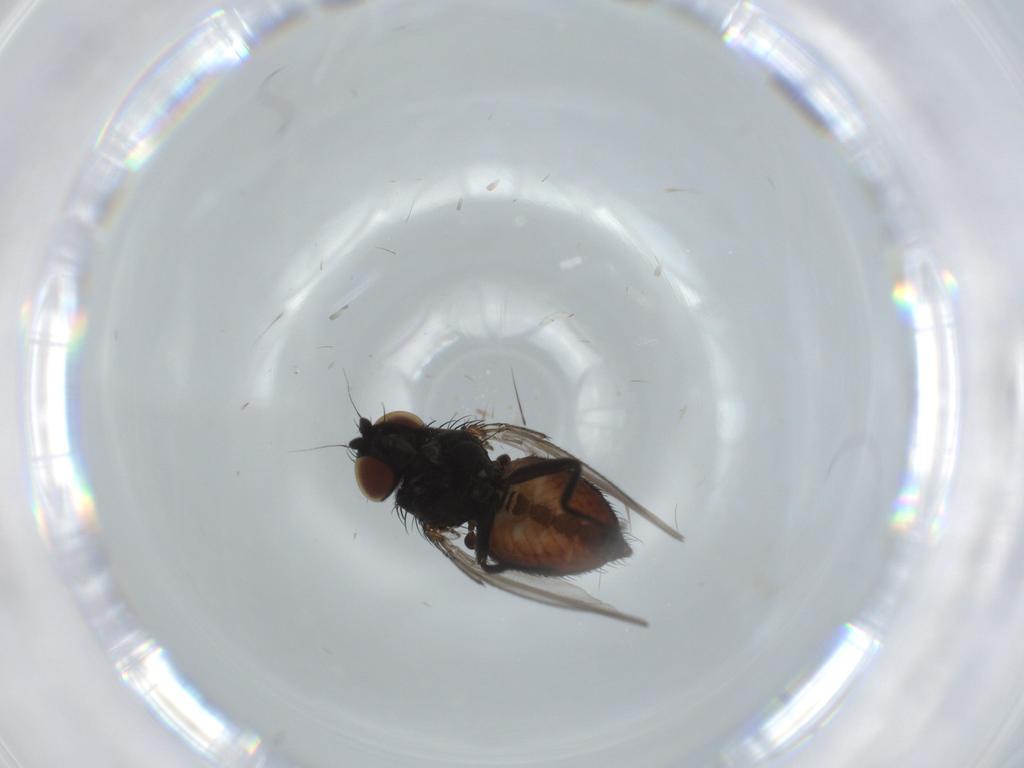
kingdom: Animalia
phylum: Arthropoda
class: Insecta
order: Diptera
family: Milichiidae
